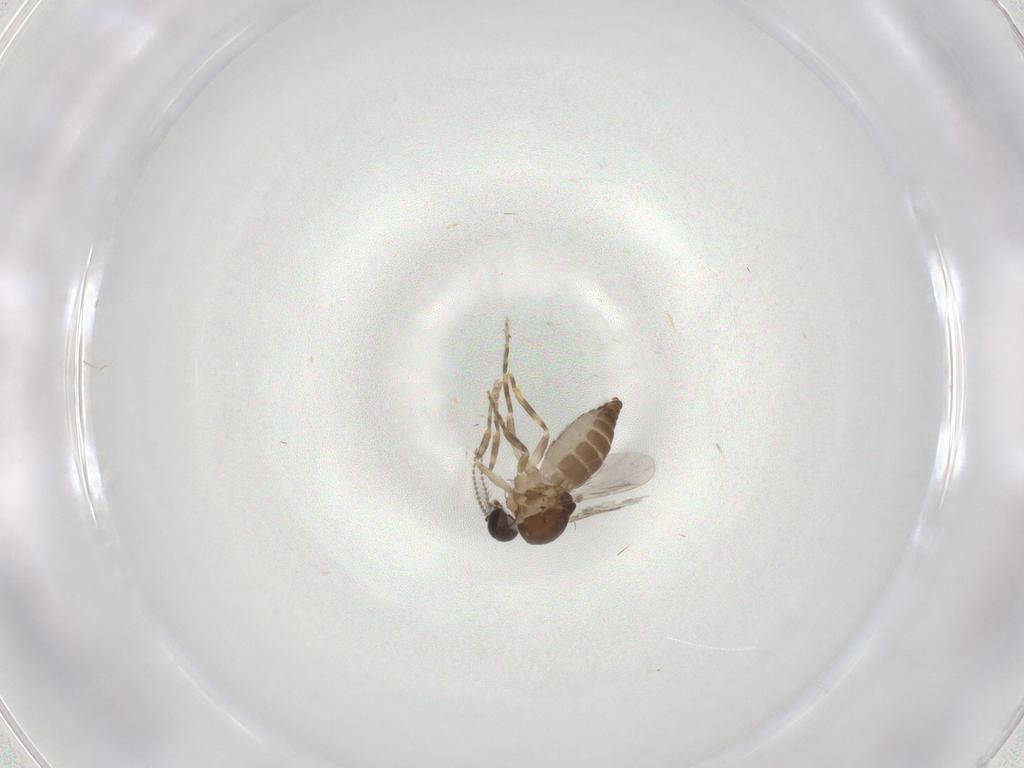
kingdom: Animalia
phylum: Arthropoda
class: Insecta
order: Diptera
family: Ceratopogonidae
